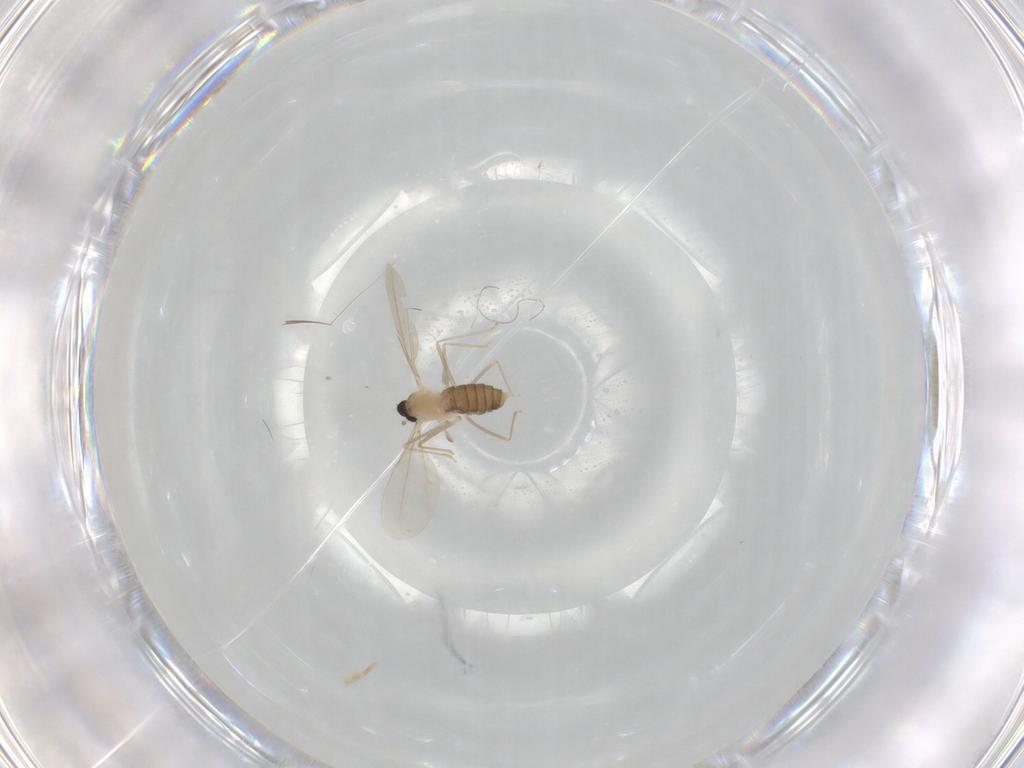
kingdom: Animalia
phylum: Arthropoda
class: Insecta
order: Diptera
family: Cecidomyiidae
